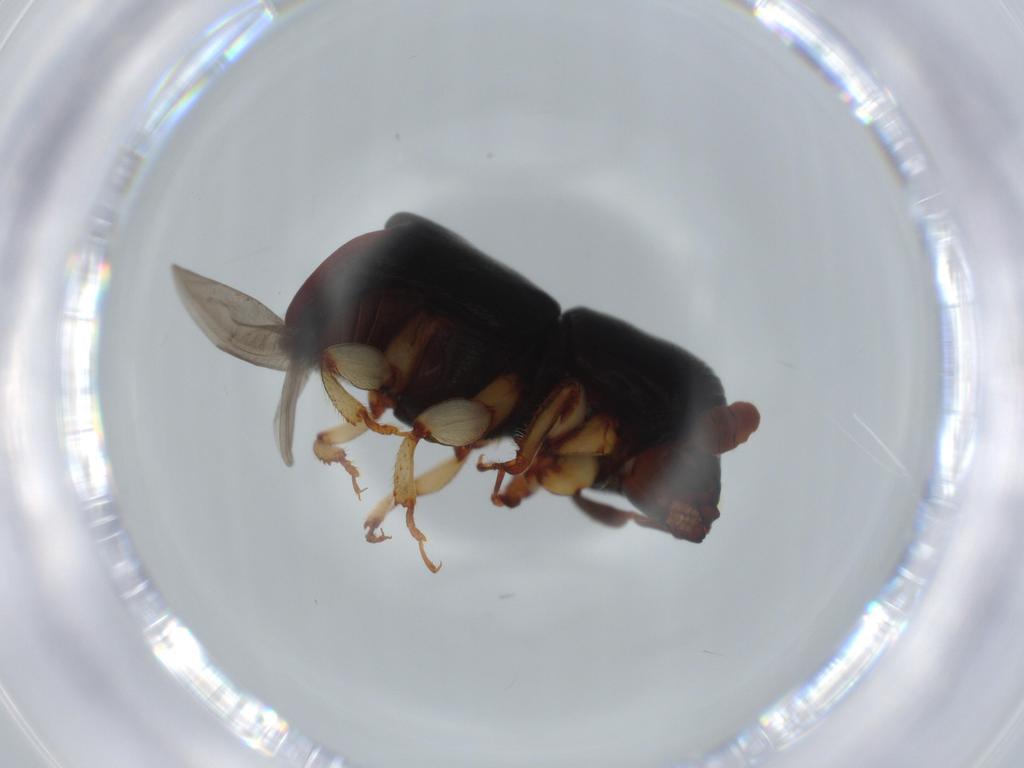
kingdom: Animalia
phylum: Arthropoda
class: Insecta
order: Coleoptera
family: Curculionidae
